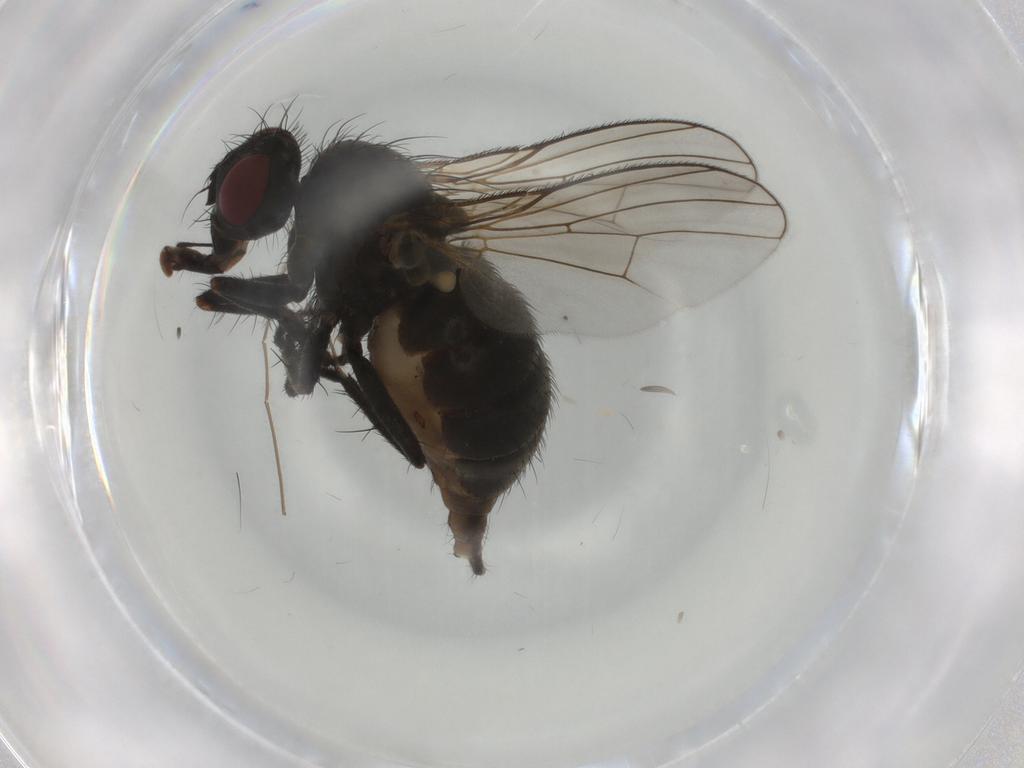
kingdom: Animalia
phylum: Arthropoda
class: Insecta
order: Diptera
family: Muscidae
